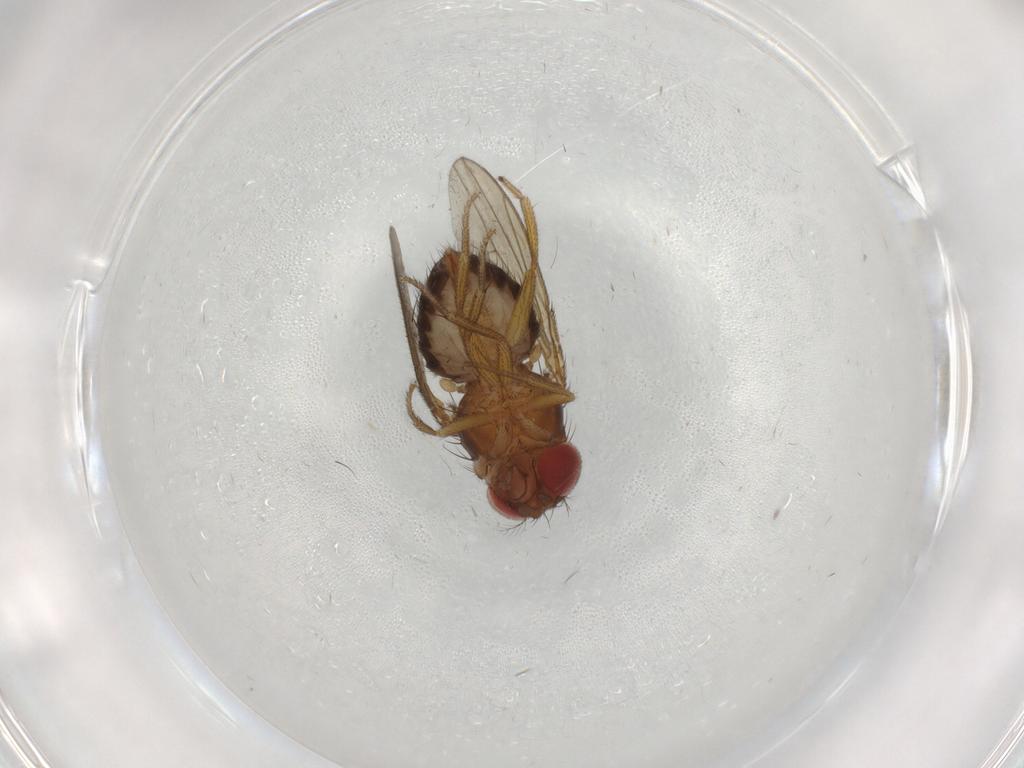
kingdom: Animalia
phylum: Arthropoda
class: Insecta
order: Diptera
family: Drosophilidae
